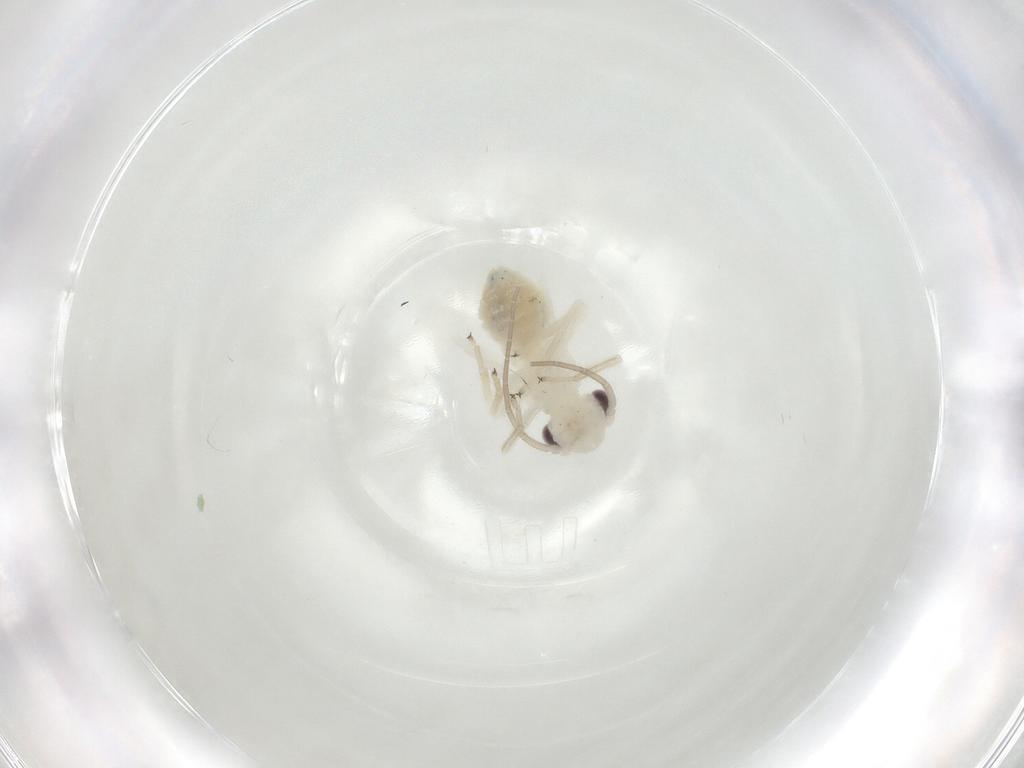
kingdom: Animalia
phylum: Arthropoda
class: Insecta
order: Psocodea
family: Caeciliusidae
